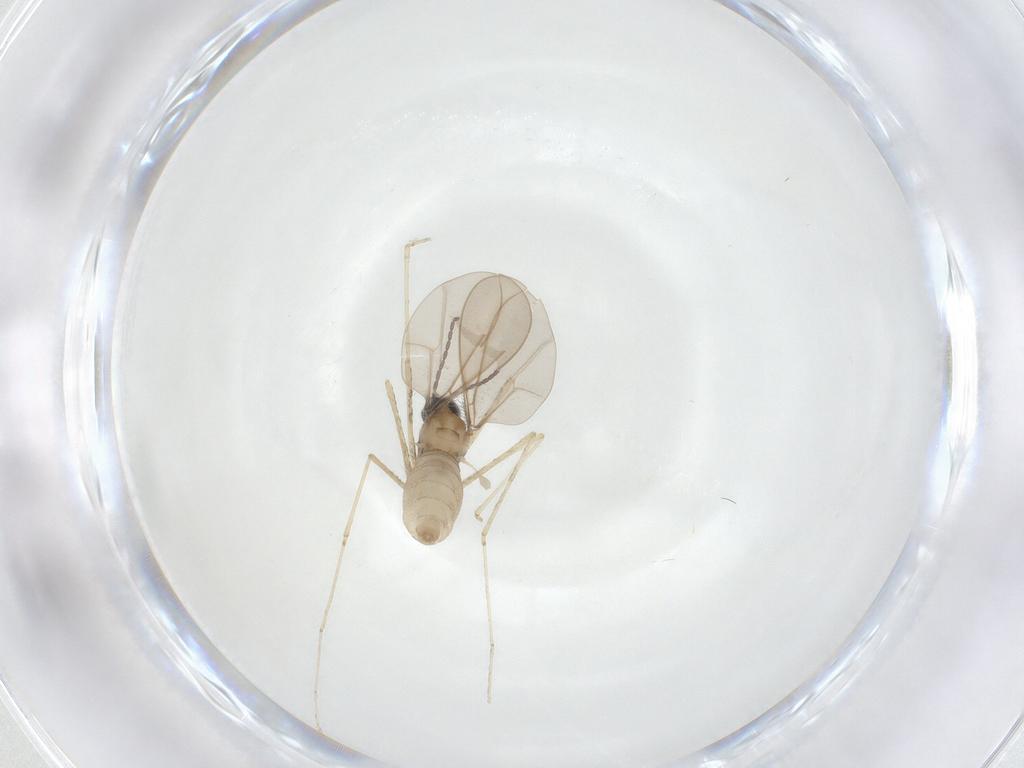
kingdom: Animalia
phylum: Arthropoda
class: Insecta
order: Diptera
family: Cecidomyiidae
